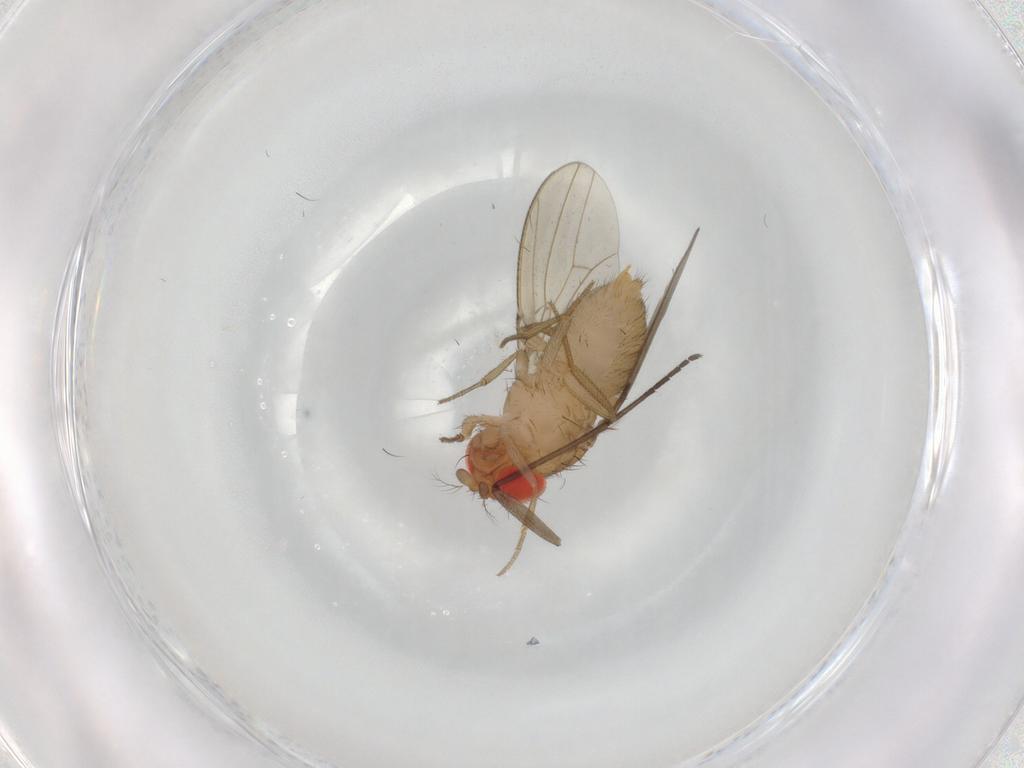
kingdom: Animalia
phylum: Arthropoda
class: Insecta
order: Diptera
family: Drosophilidae
